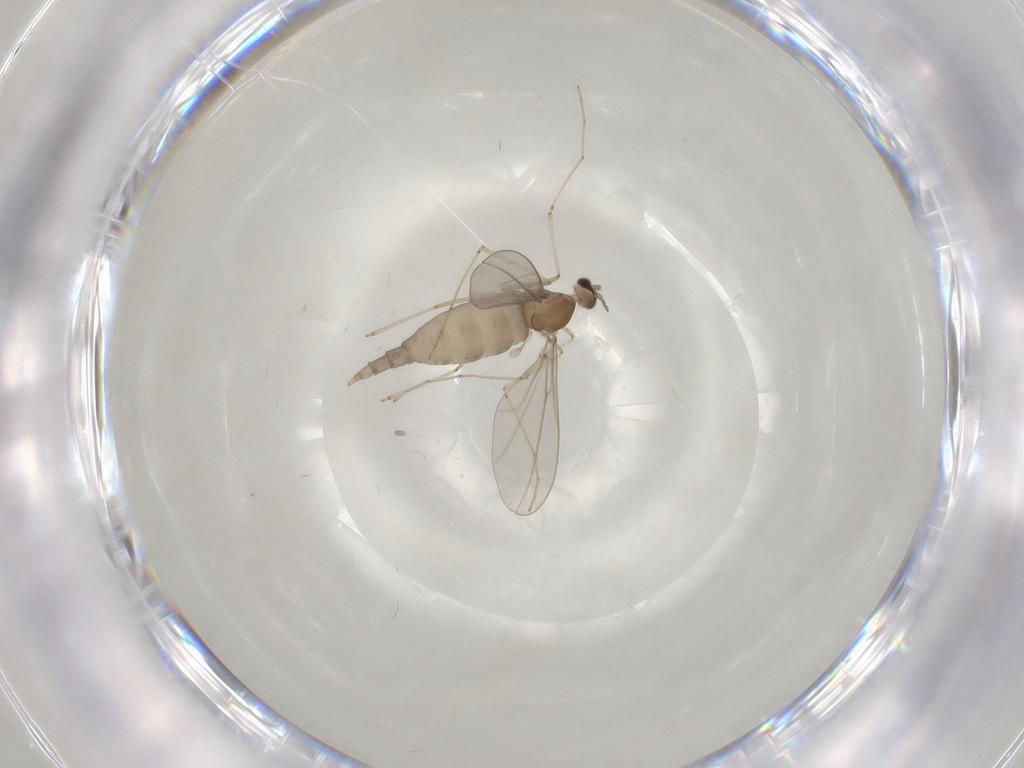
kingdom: Animalia
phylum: Arthropoda
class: Insecta
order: Diptera
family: Cecidomyiidae
